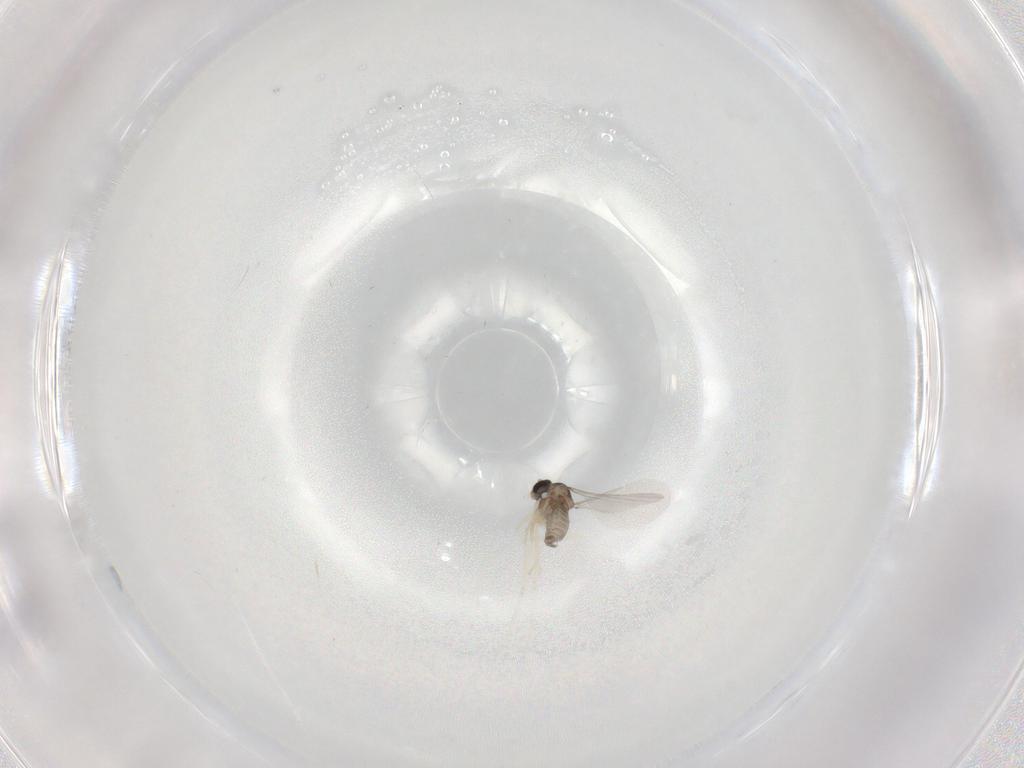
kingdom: Animalia
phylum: Arthropoda
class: Insecta
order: Diptera
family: Cecidomyiidae
